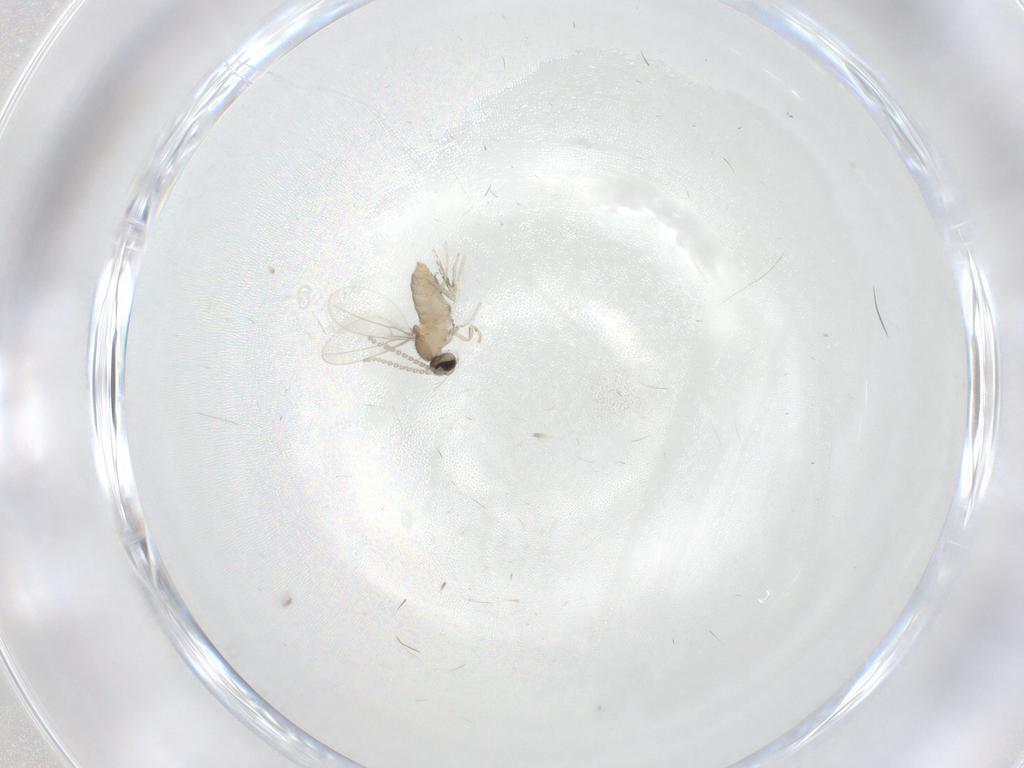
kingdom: Animalia
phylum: Arthropoda
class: Insecta
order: Diptera
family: Cecidomyiidae
